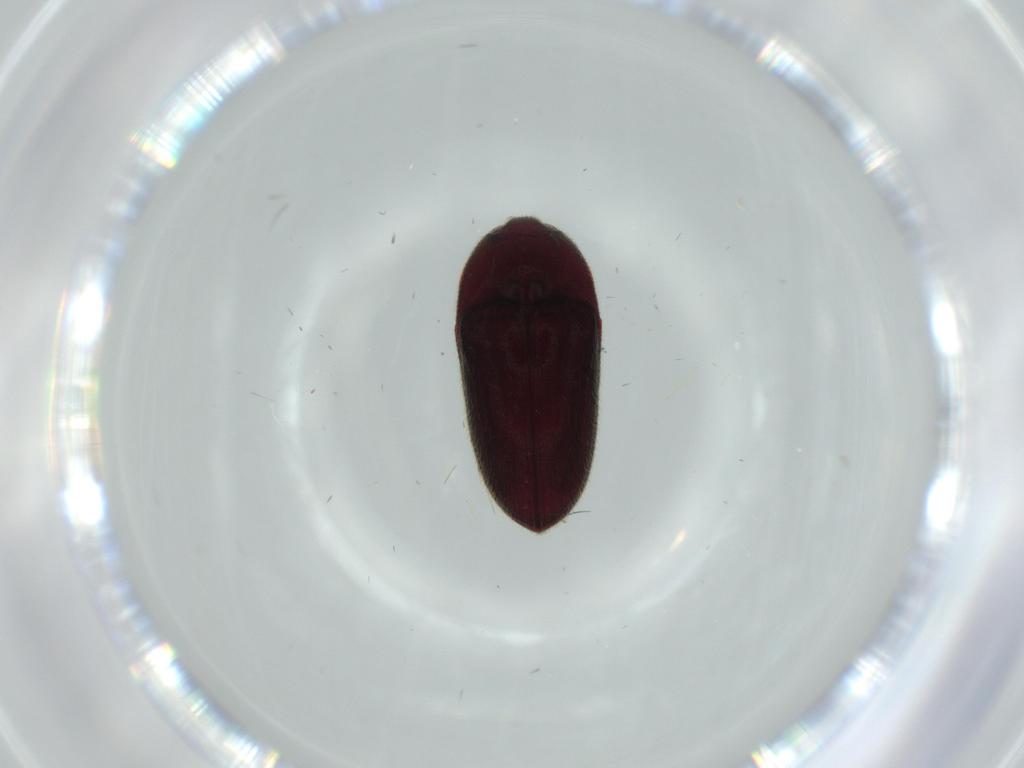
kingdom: Animalia
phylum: Arthropoda
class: Insecta
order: Coleoptera
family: Throscidae
